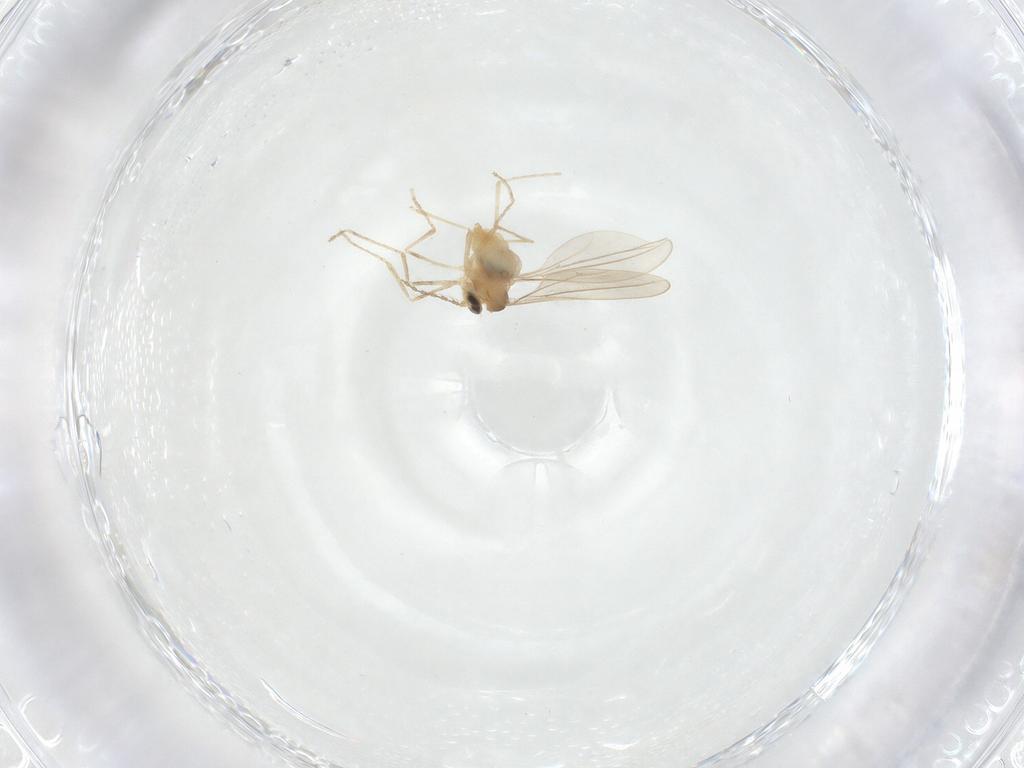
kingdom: Animalia
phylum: Arthropoda
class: Insecta
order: Diptera
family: Cecidomyiidae
